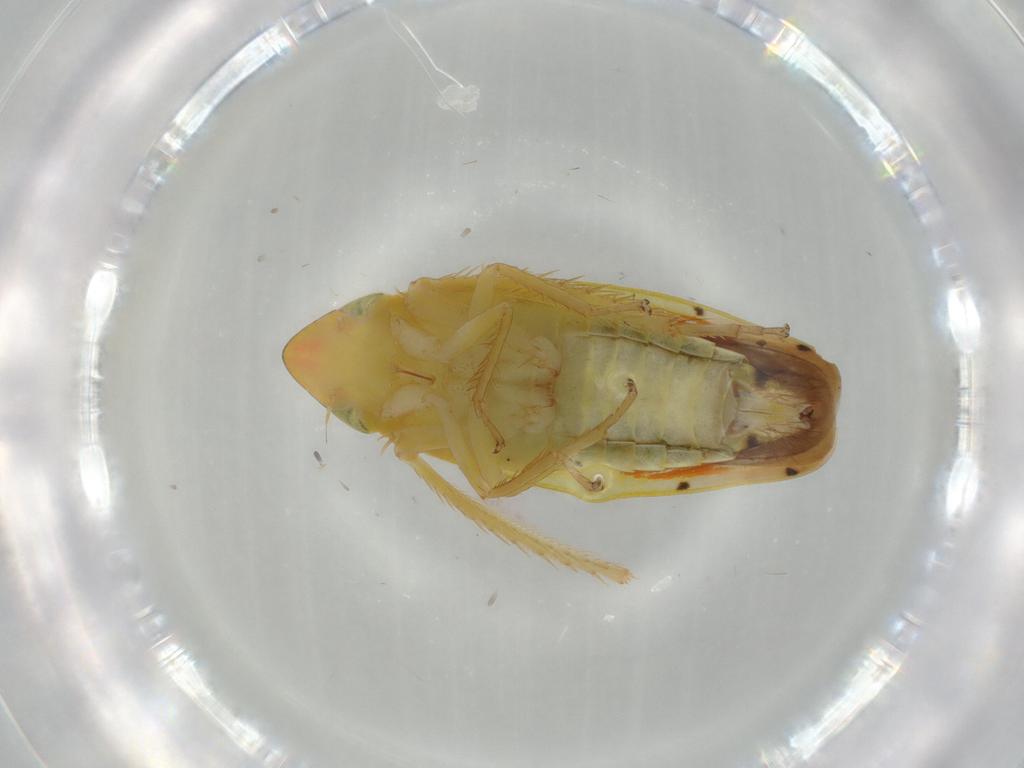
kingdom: Animalia
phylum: Arthropoda
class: Insecta
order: Hemiptera
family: Cicadellidae
